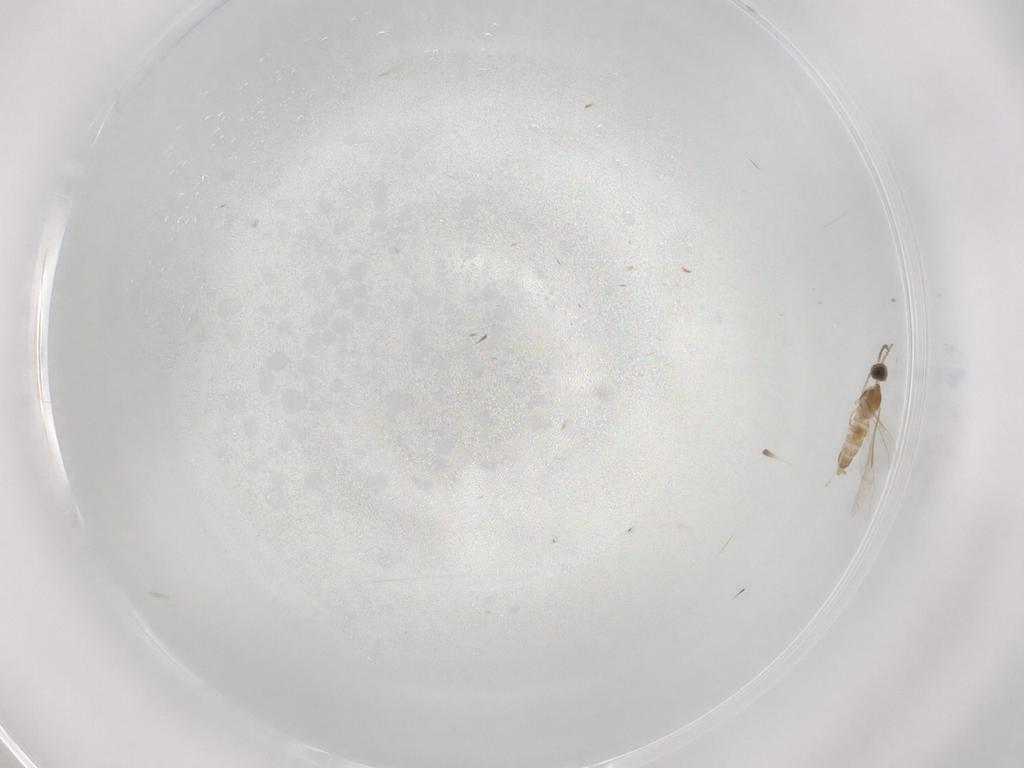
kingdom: Animalia
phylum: Arthropoda
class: Insecta
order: Diptera
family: Cecidomyiidae
